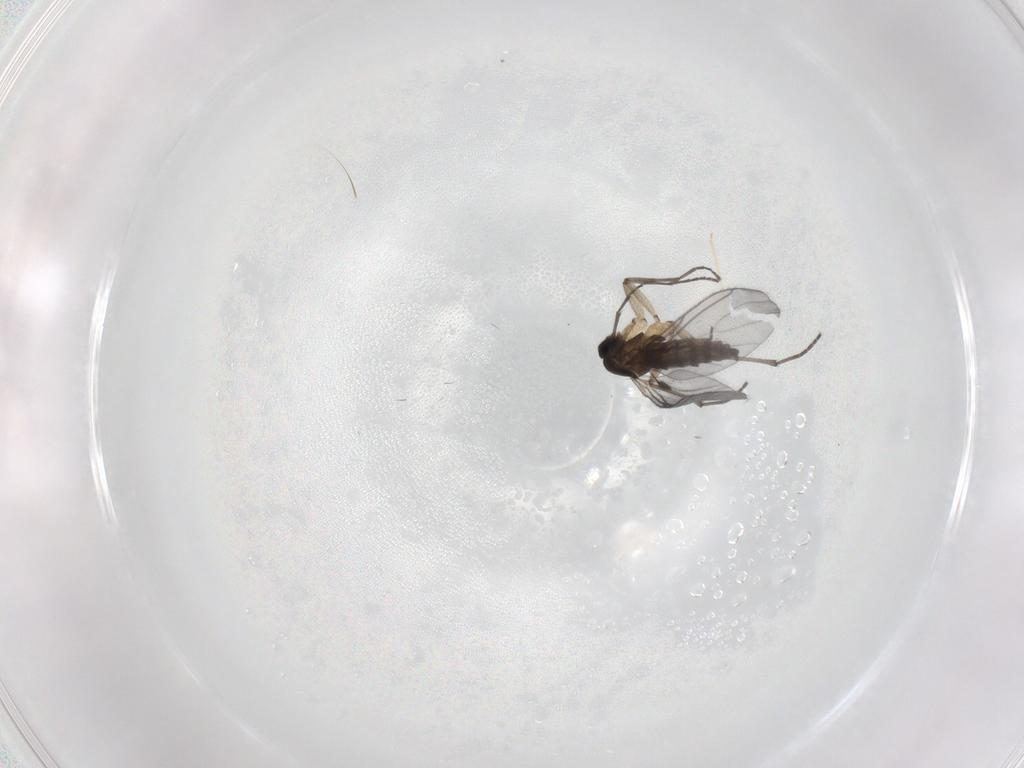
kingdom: Animalia
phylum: Arthropoda
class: Insecta
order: Diptera
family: Sciaridae
